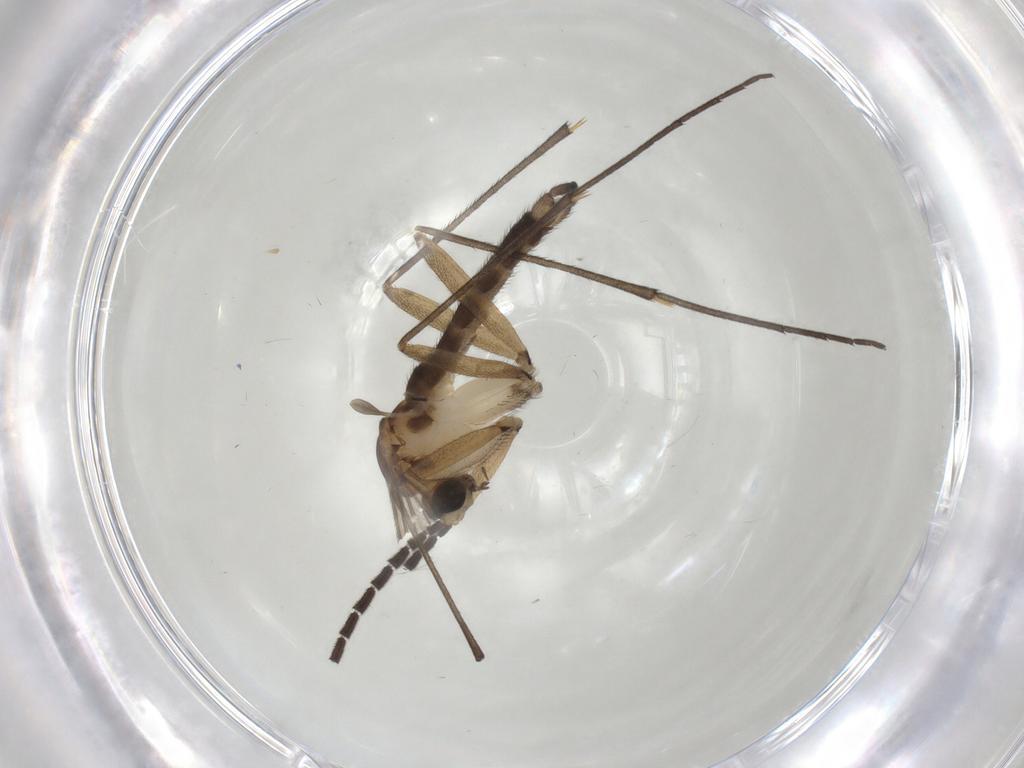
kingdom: Animalia
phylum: Arthropoda
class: Insecta
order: Diptera
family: Sciaridae
